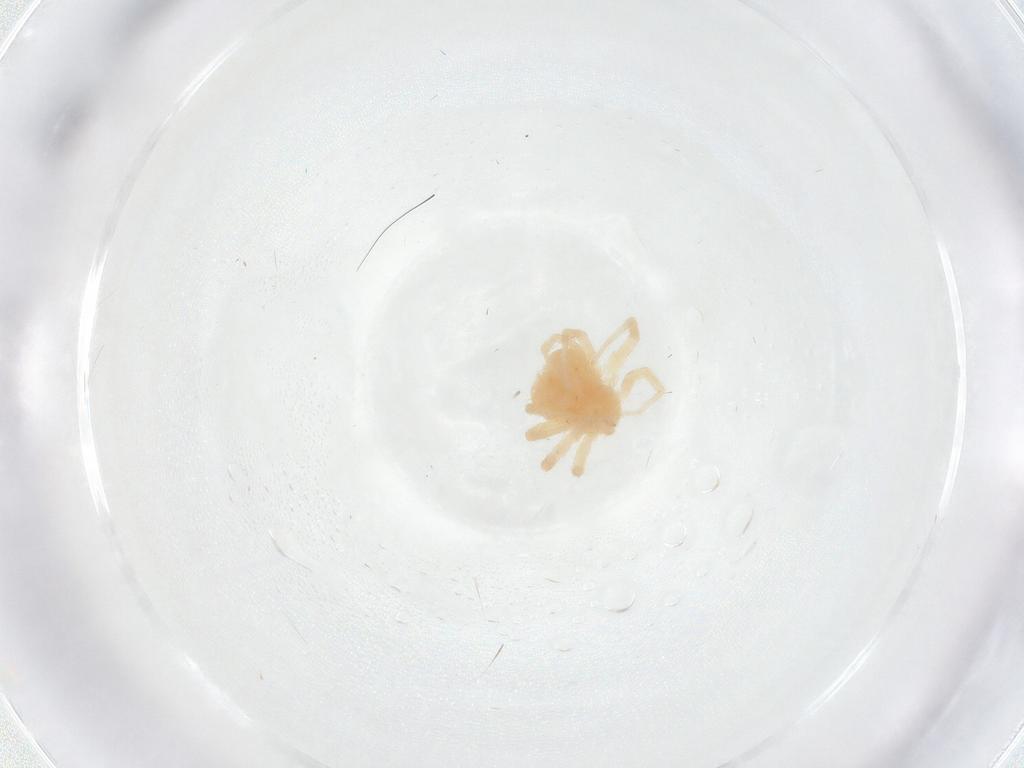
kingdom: Animalia
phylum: Arthropoda
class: Arachnida
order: Trombidiformes
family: Anystidae
